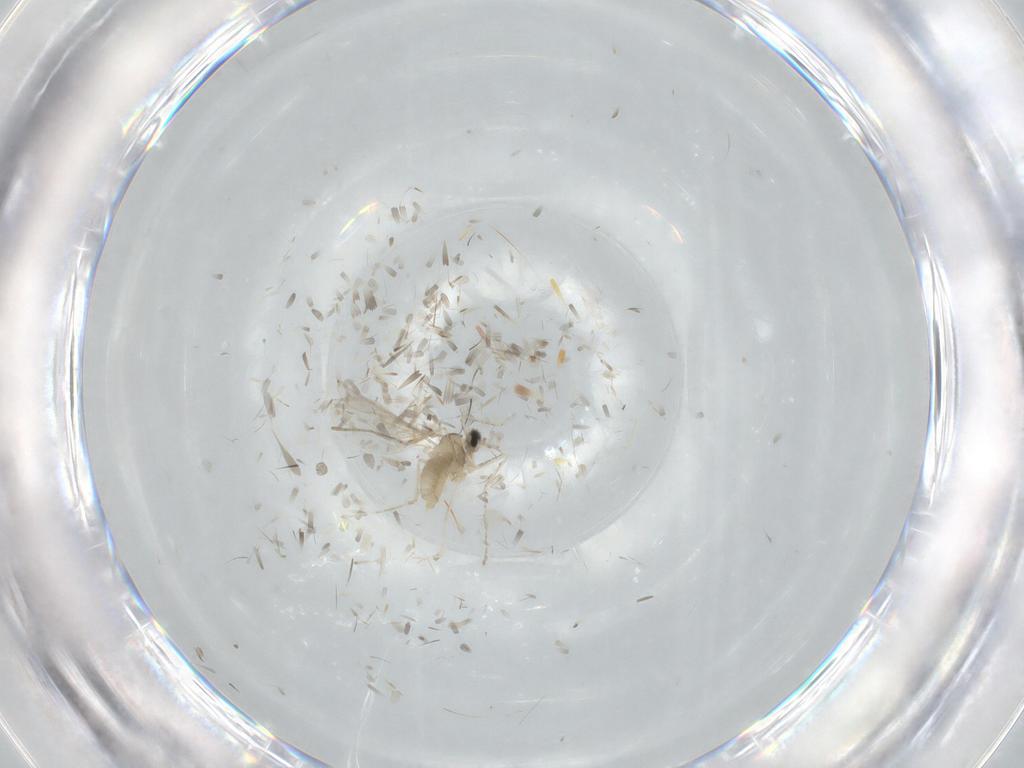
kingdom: Animalia
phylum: Arthropoda
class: Insecta
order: Diptera
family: Cecidomyiidae
